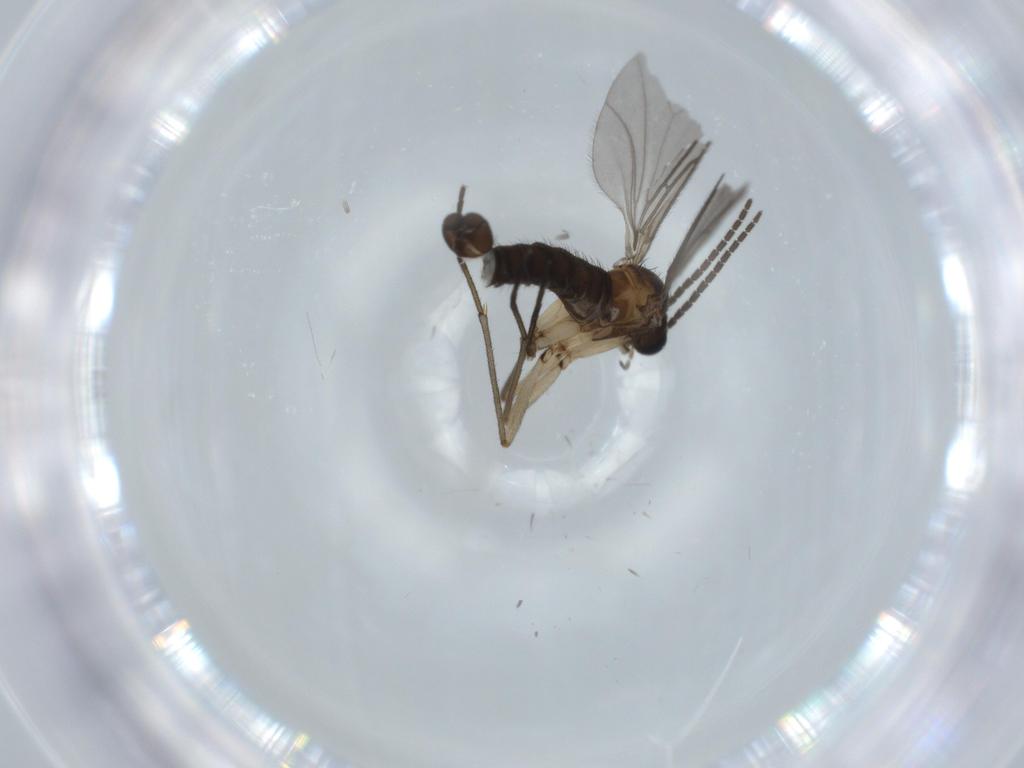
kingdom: Animalia
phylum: Arthropoda
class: Insecta
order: Diptera
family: Sciaridae
